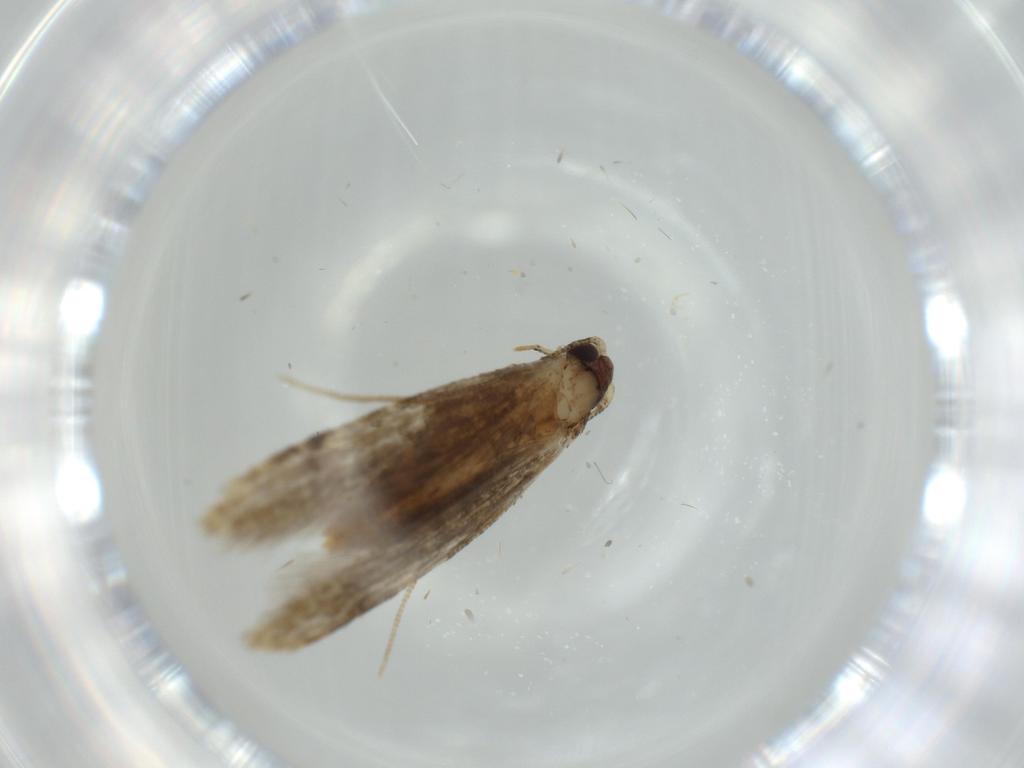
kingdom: Animalia
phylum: Arthropoda
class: Insecta
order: Lepidoptera
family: Tineidae
